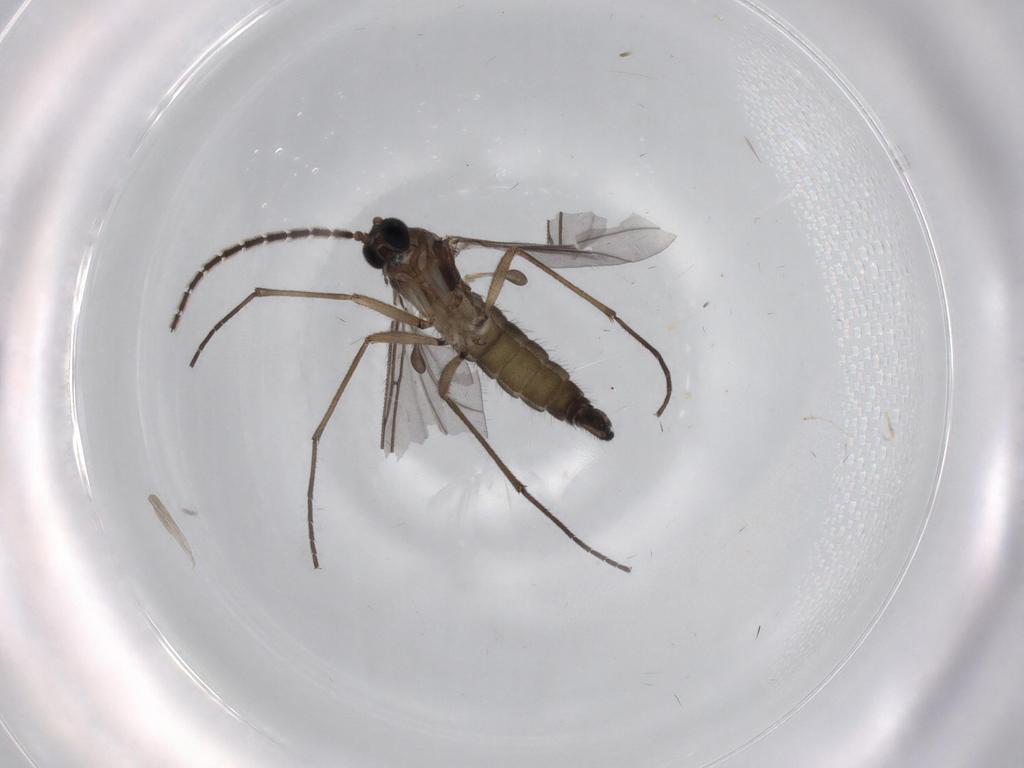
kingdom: Animalia
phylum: Arthropoda
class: Insecta
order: Diptera
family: Cecidomyiidae
